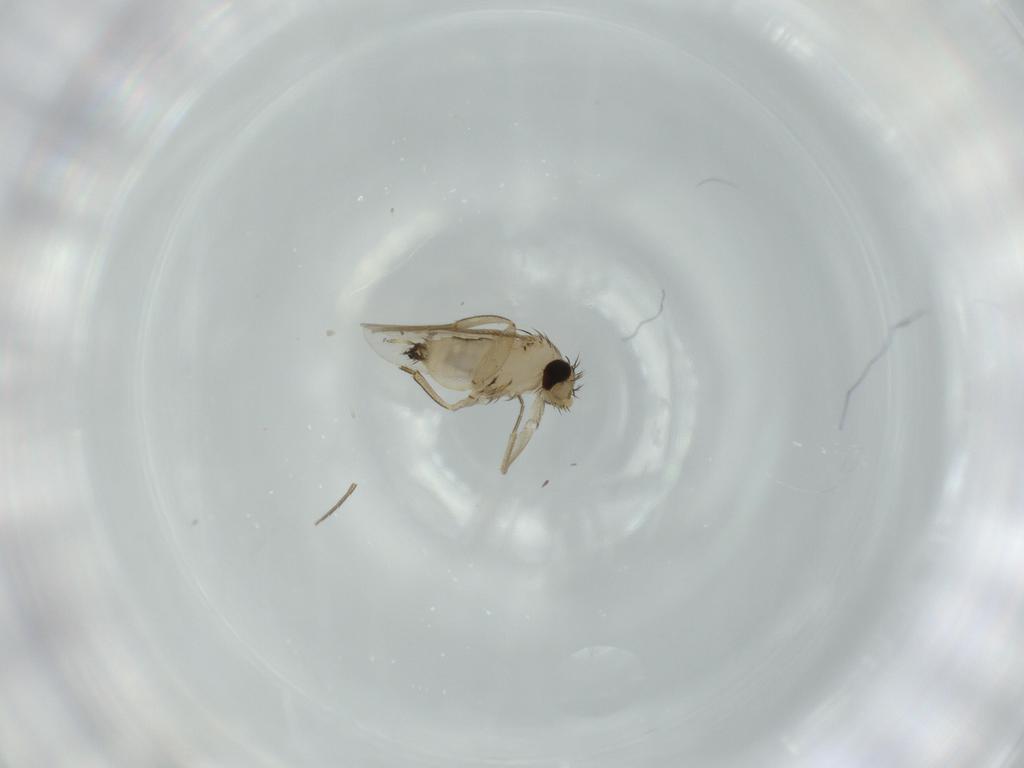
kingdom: Animalia
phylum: Arthropoda
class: Insecta
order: Diptera
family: Phoridae
